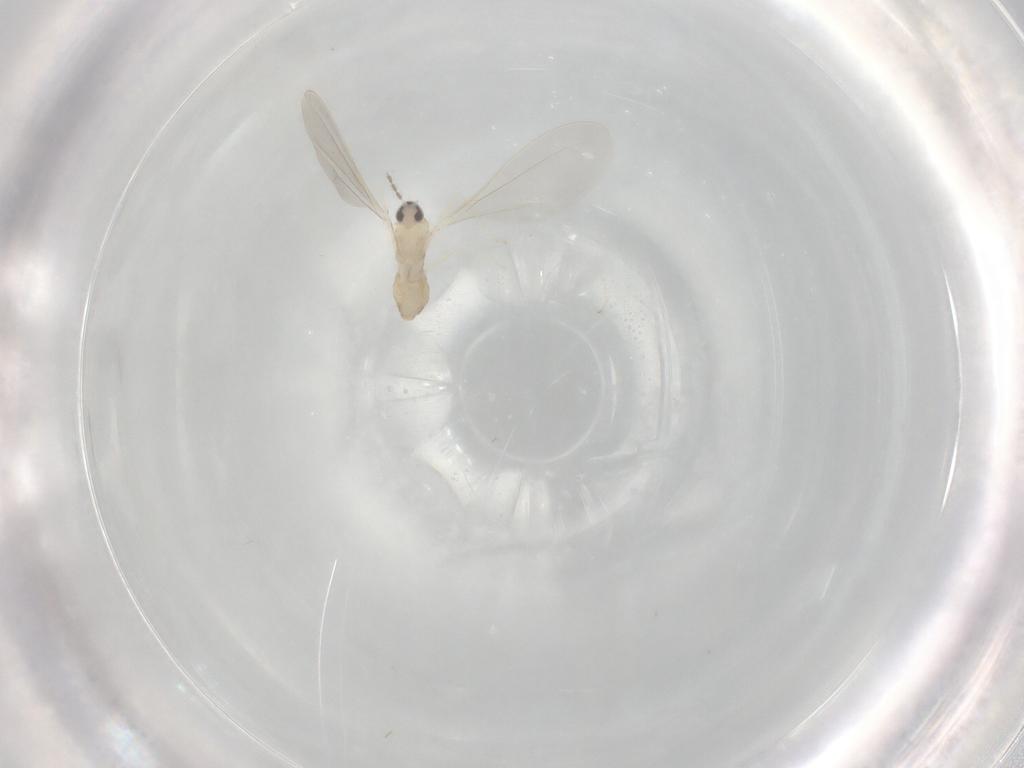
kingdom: Animalia
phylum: Arthropoda
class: Insecta
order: Diptera
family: Cecidomyiidae
